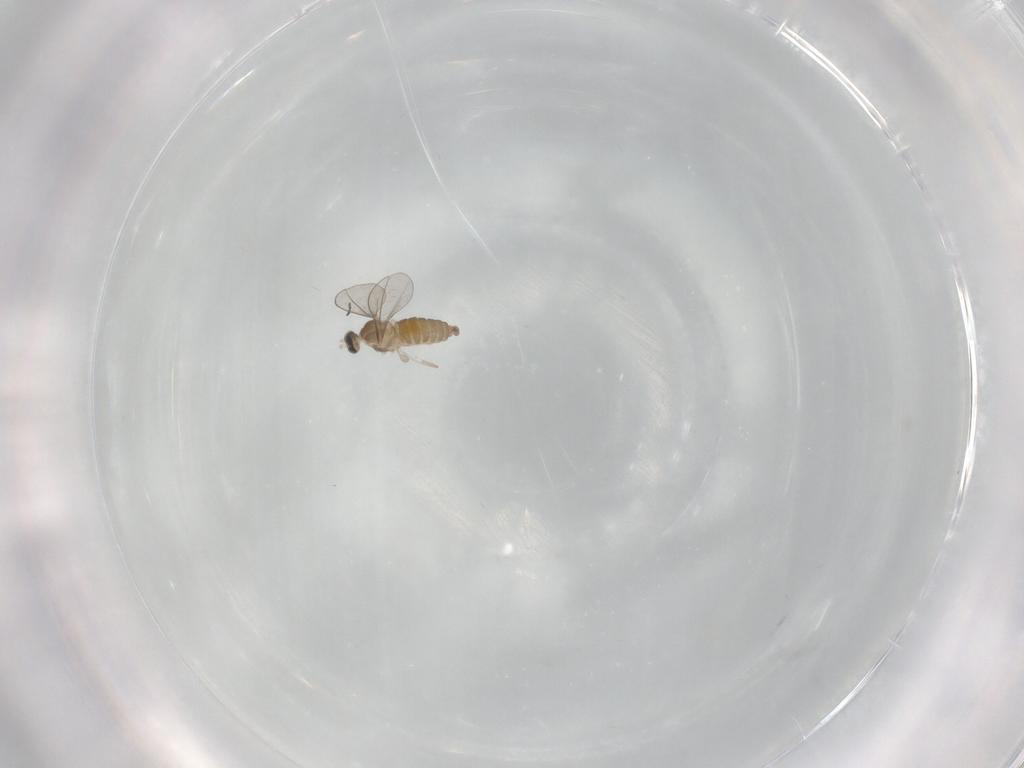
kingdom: Animalia
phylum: Arthropoda
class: Insecta
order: Diptera
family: Cecidomyiidae
